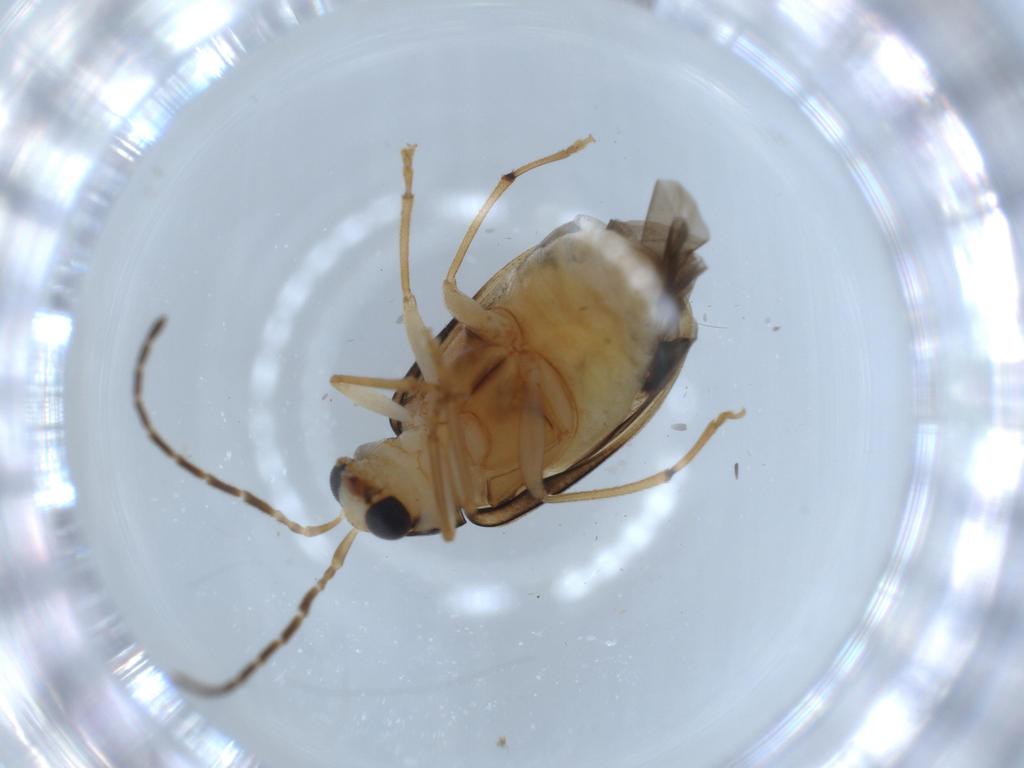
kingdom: Animalia
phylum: Arthropoda
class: Insecta
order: Coleoptera
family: Chrysomelidae
